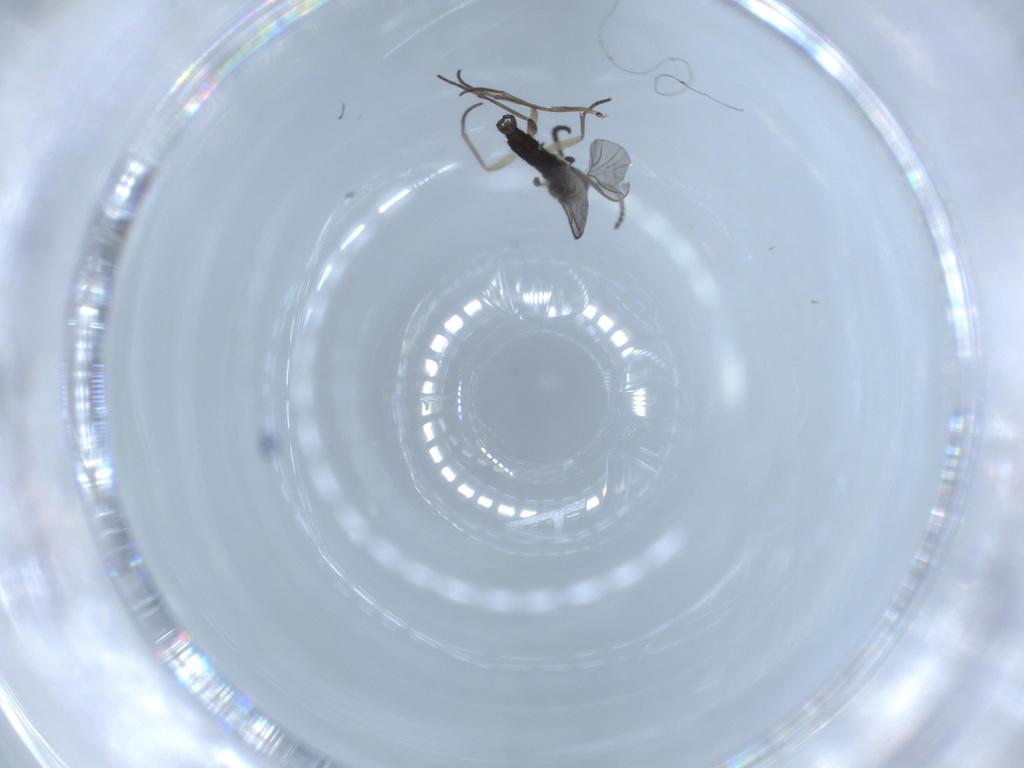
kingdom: Animalia
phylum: Arthropoda
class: Insecta
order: Diptera
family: Sciaridae
